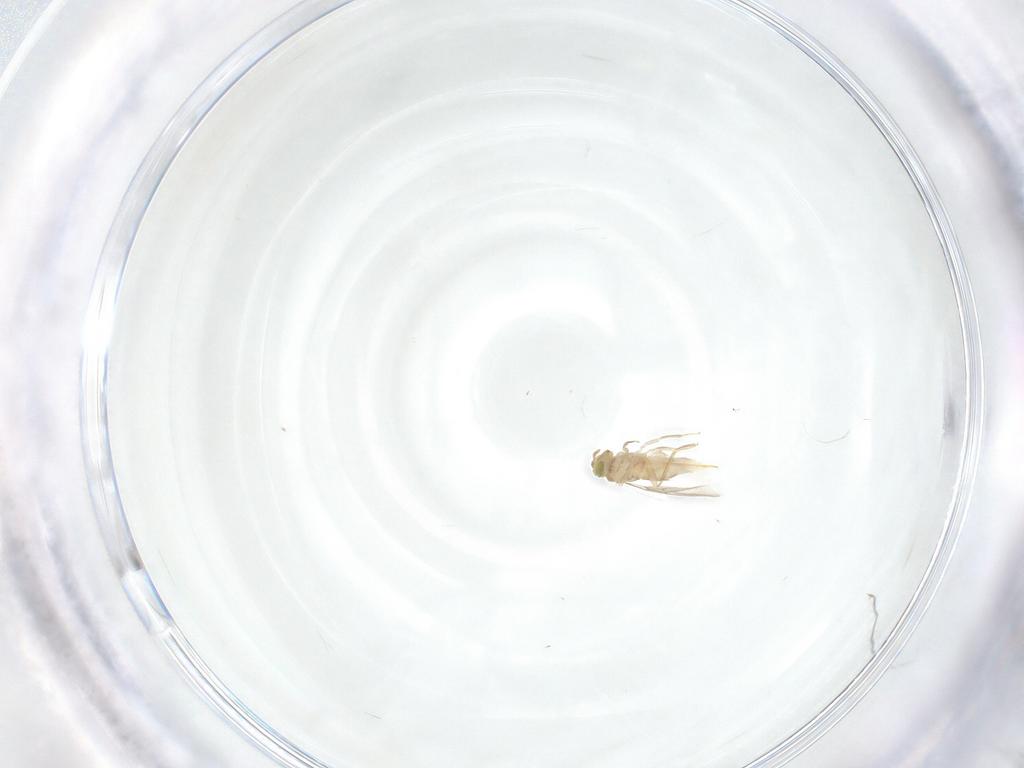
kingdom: Animalia
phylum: Arthropoda
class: Insecta
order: Hymenoptera
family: Aphelinidae
